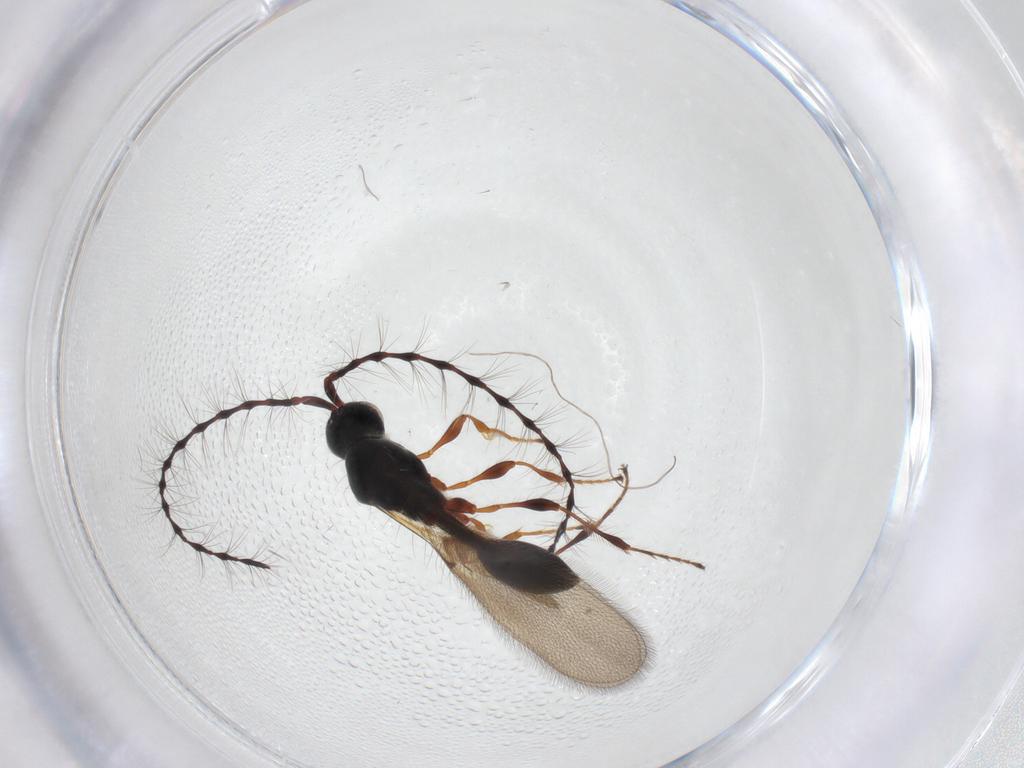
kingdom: Animalia
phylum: Arthropoda
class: Insecta
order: Hymenoptera
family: Diapriidae
